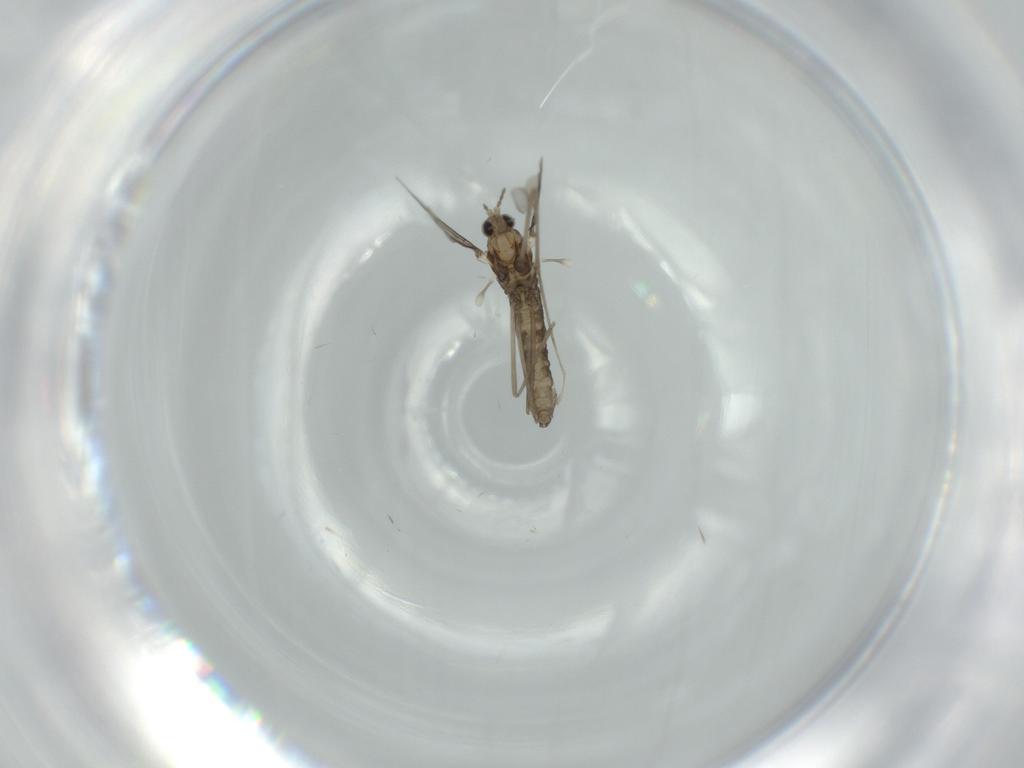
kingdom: Animalia
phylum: Arthropoda
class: Insecta
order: Diptera
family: Cecidomyiidae
